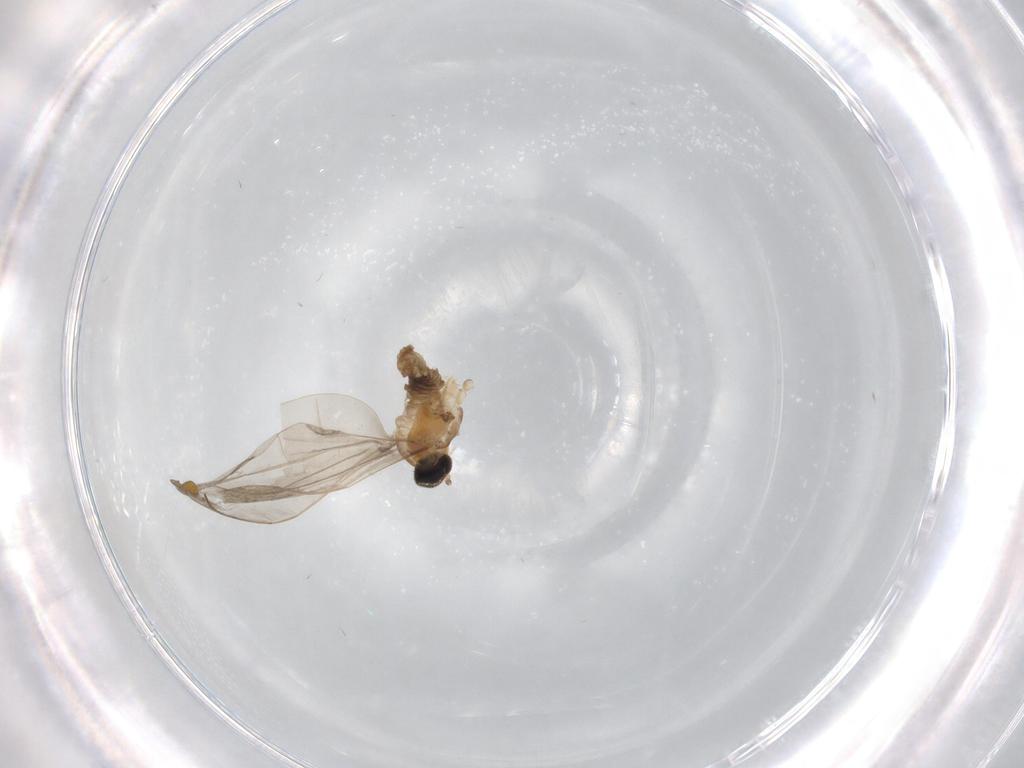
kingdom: Animalia
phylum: Arthropoda
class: Insecta
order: Diptera
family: Cecidomyiidae
